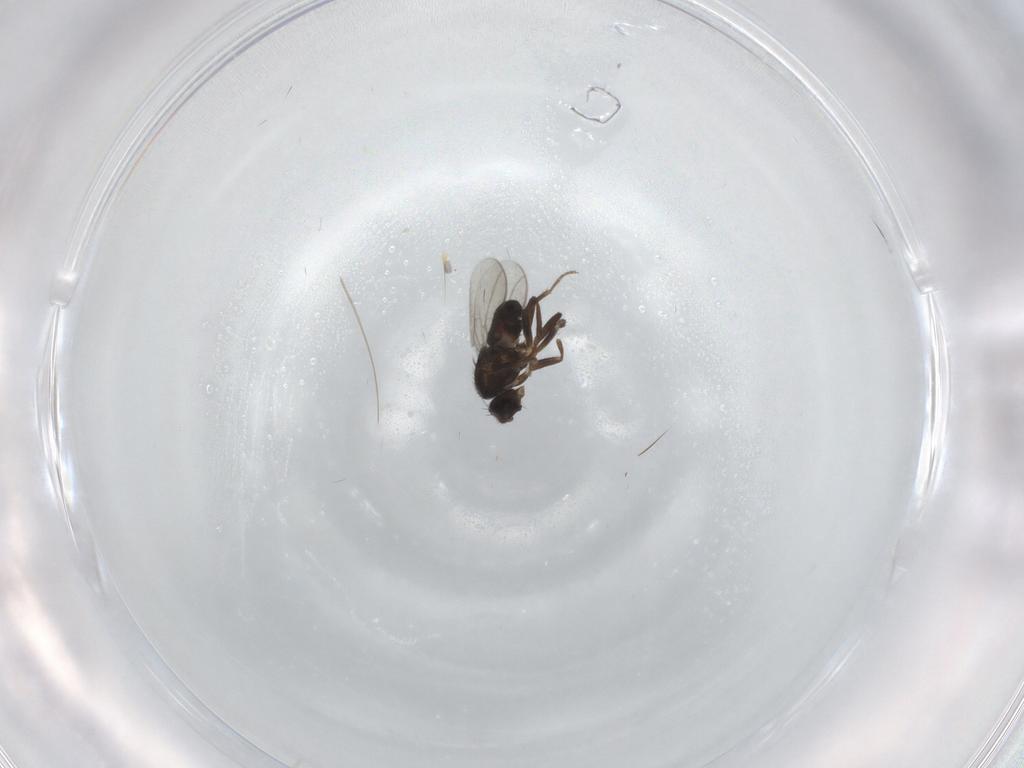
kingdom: Animalia
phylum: Arthropoda
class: Insecta
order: Diptera
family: Sphaeroceridae
